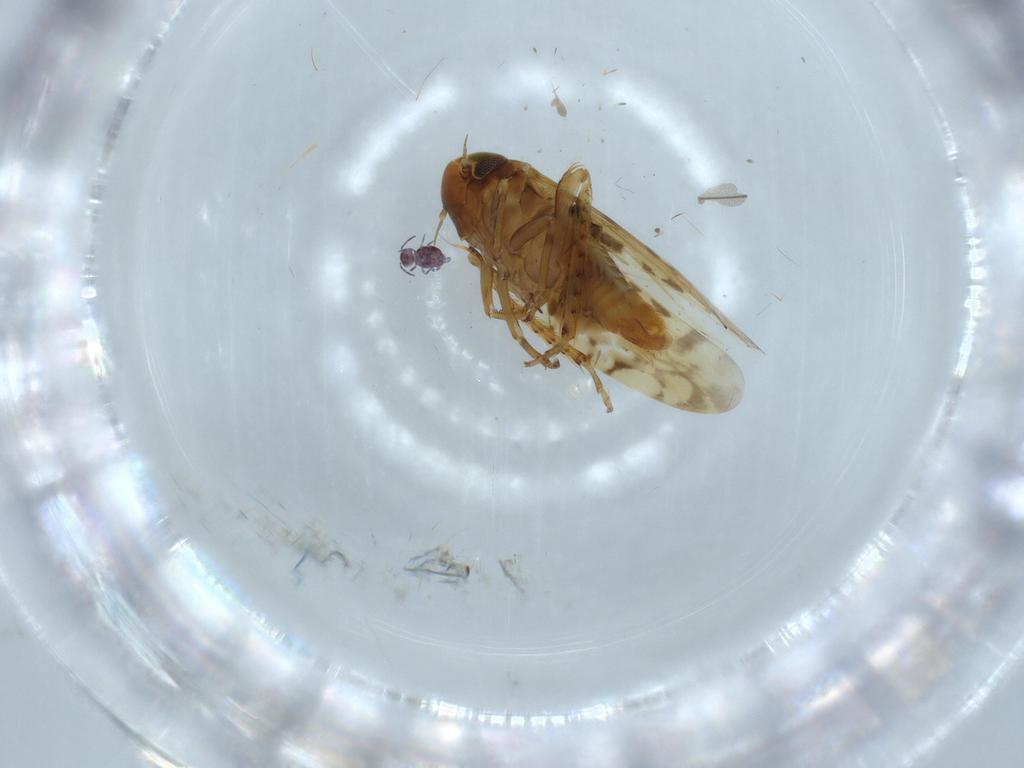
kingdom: Animalia
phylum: Arthropoda
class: Insecta
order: Hemiptera
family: Cicadellidae
